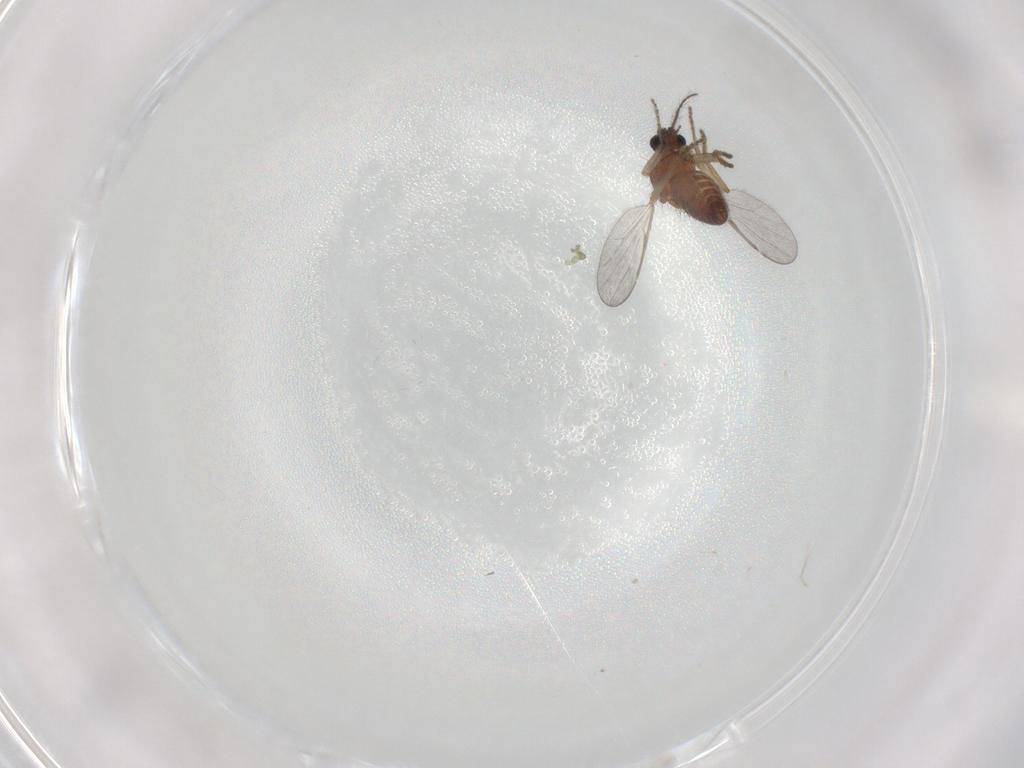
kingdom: Animalia
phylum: Arthropoda
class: Insecta
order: Diptera
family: Ceratopogonidae
